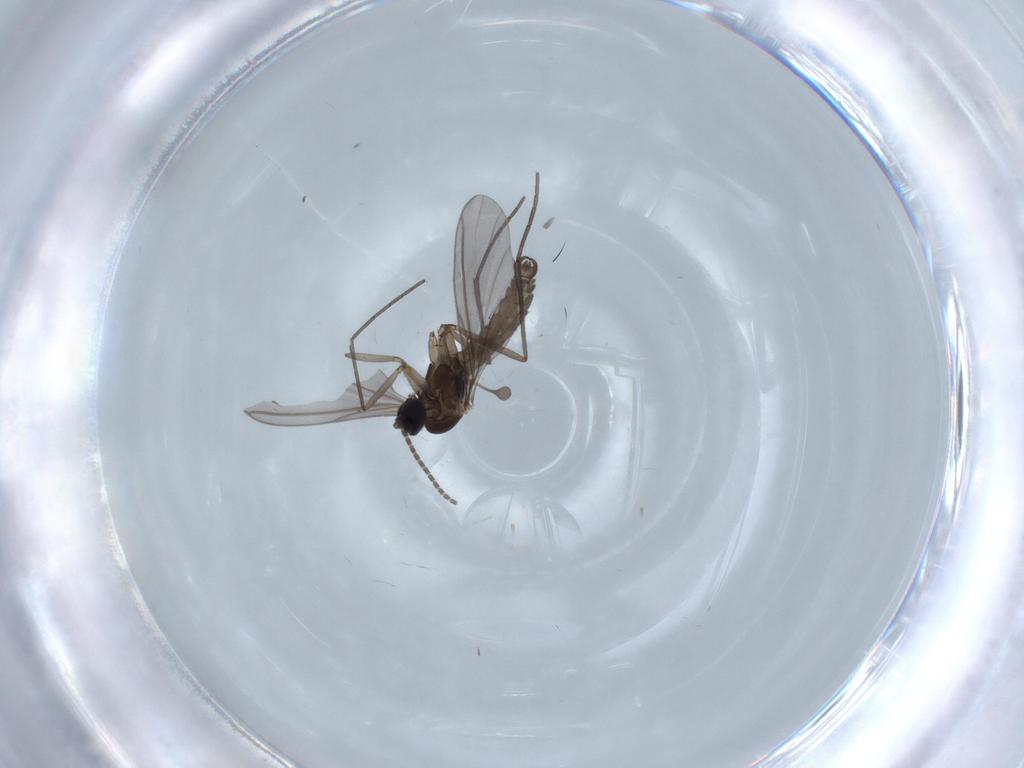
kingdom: Animalia
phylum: Arthropoda
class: Insecta
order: Diptera
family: Sciaridae
